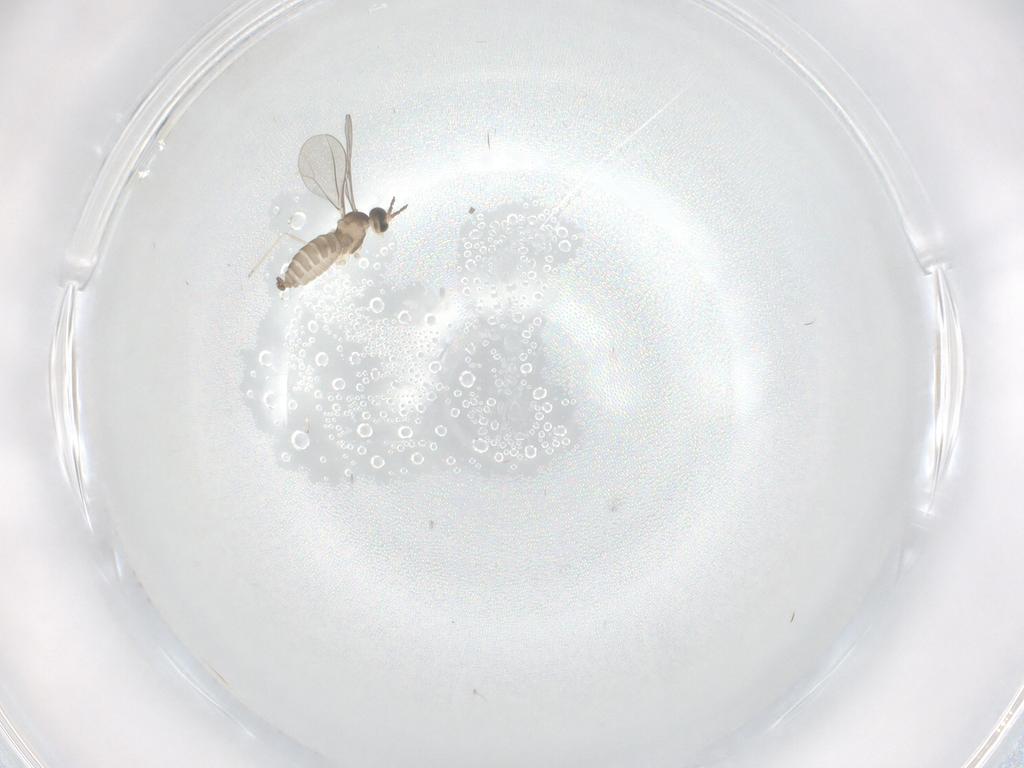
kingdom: Animalia
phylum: Arthropoda
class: Insecta
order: Diptera
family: Cecidomyiidae
